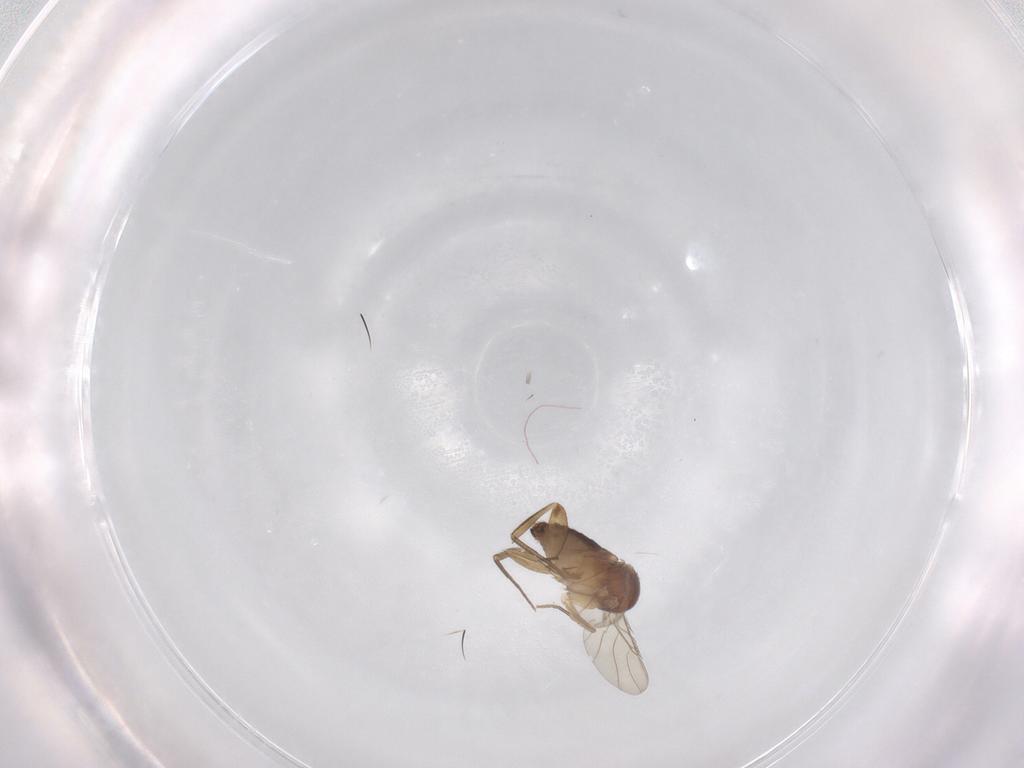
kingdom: Animalia
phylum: Arthropoda
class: Insecta
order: Diptera
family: Phoridae
